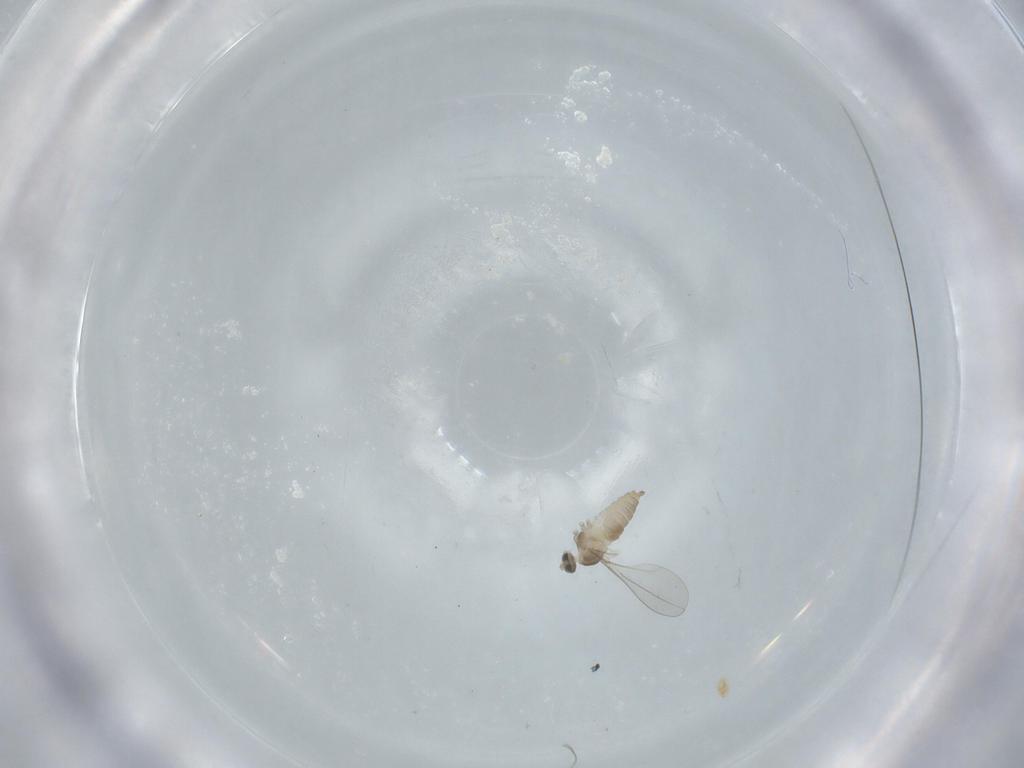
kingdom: Animalia
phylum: Arthropoda
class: Insecta
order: Diptera
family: Cecidomyiidae
